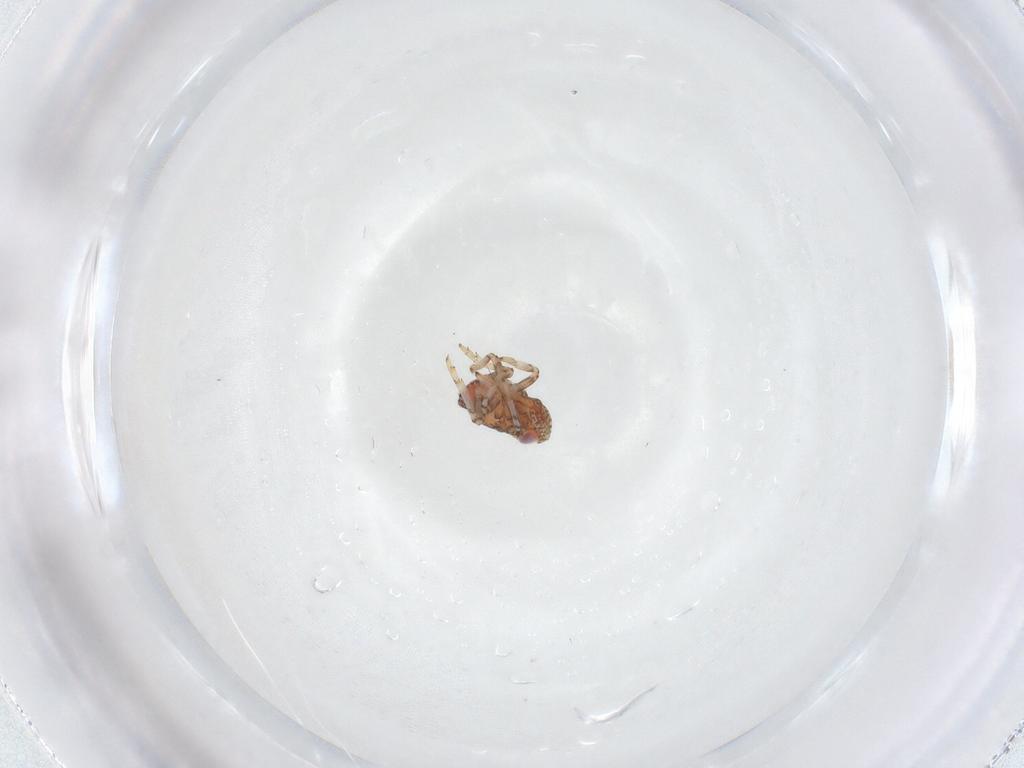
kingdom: Animalia
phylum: Arthropoda
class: Insecta
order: Hemiptera
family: Issidae
